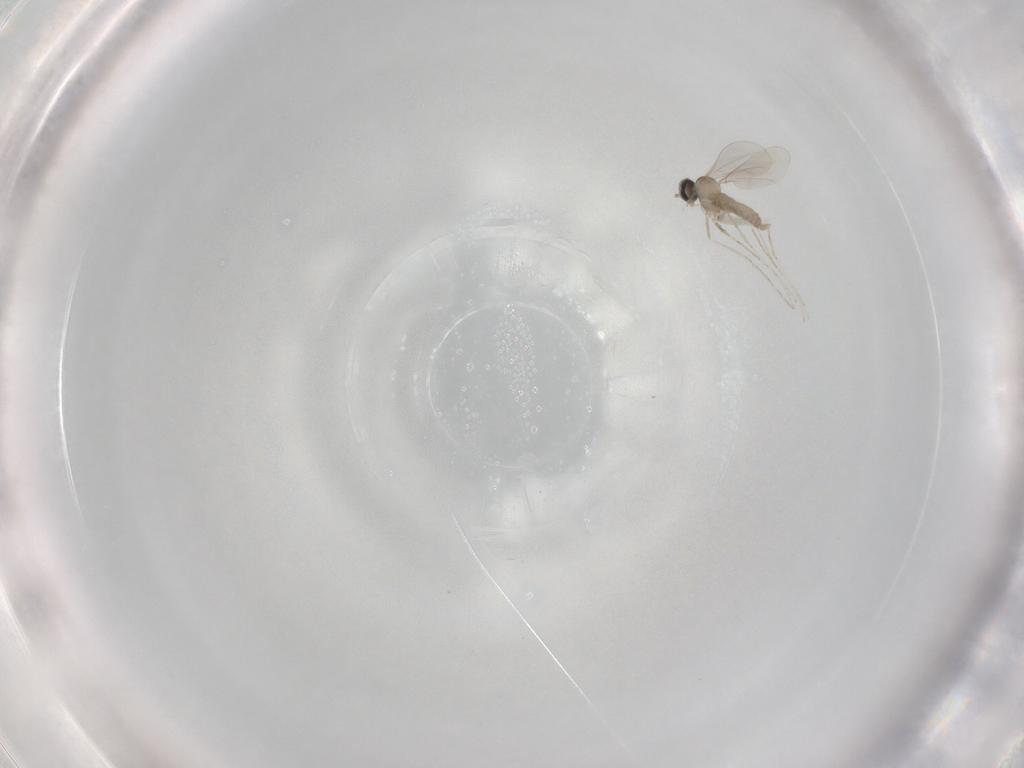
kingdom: Animalia
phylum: Arthropoda
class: Insecta
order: Diptera
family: Cecidomyiidae
